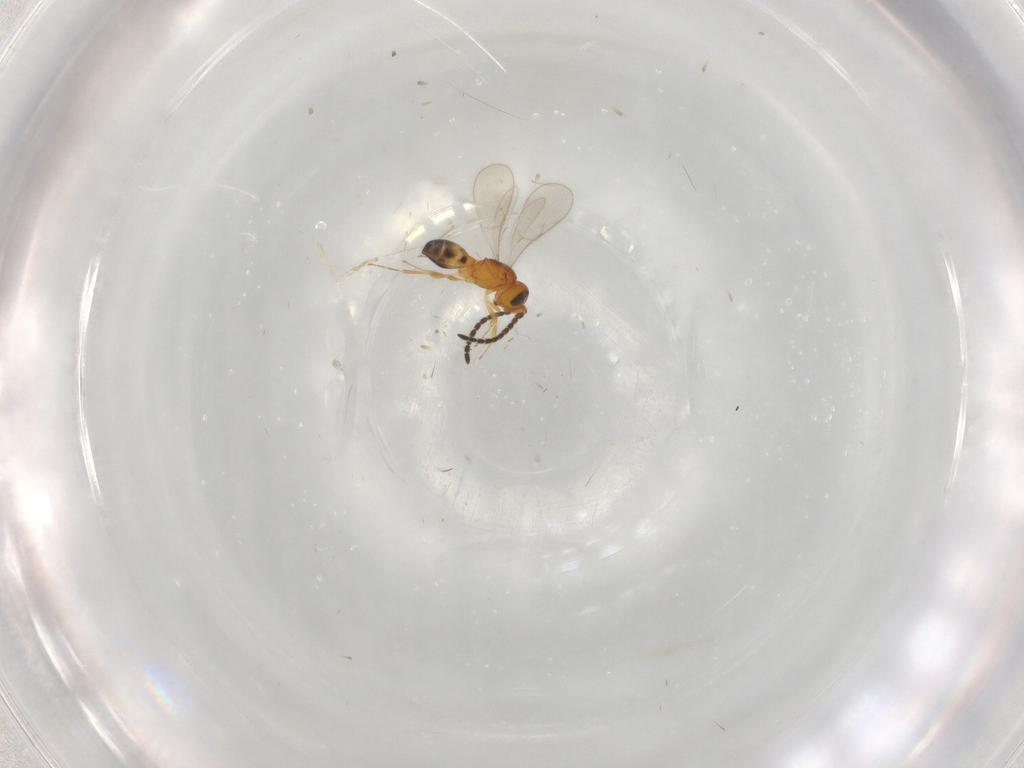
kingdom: Animalia
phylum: Arthropoda
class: Insecta
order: Hymenoptera
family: Scelionidae
